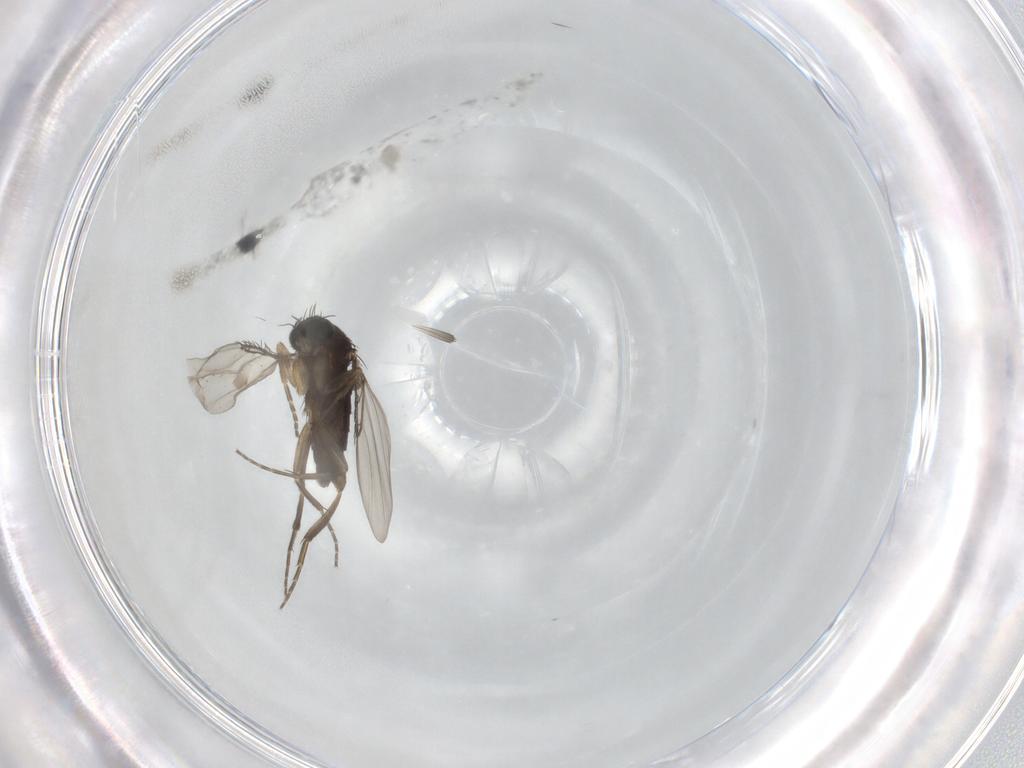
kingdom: Animalia
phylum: Arthropoda
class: Insecta
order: Diptera
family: Phoridae
